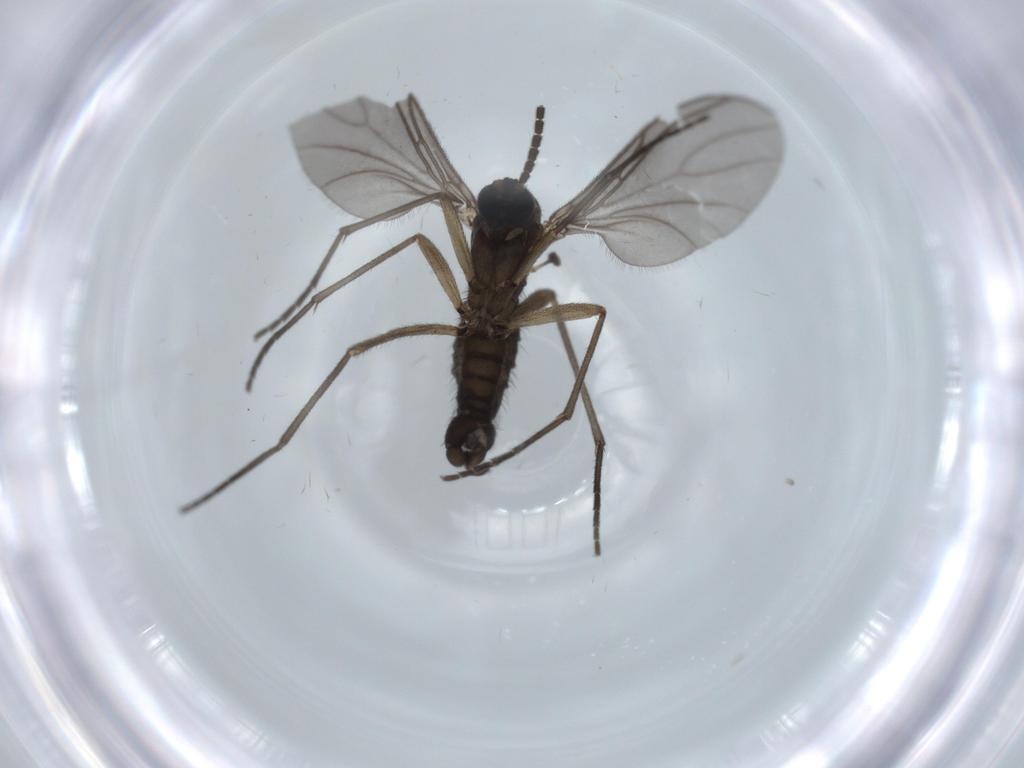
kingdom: Animalia
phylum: Arthropoda
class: Insecta
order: Diptera
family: Sciaridae
